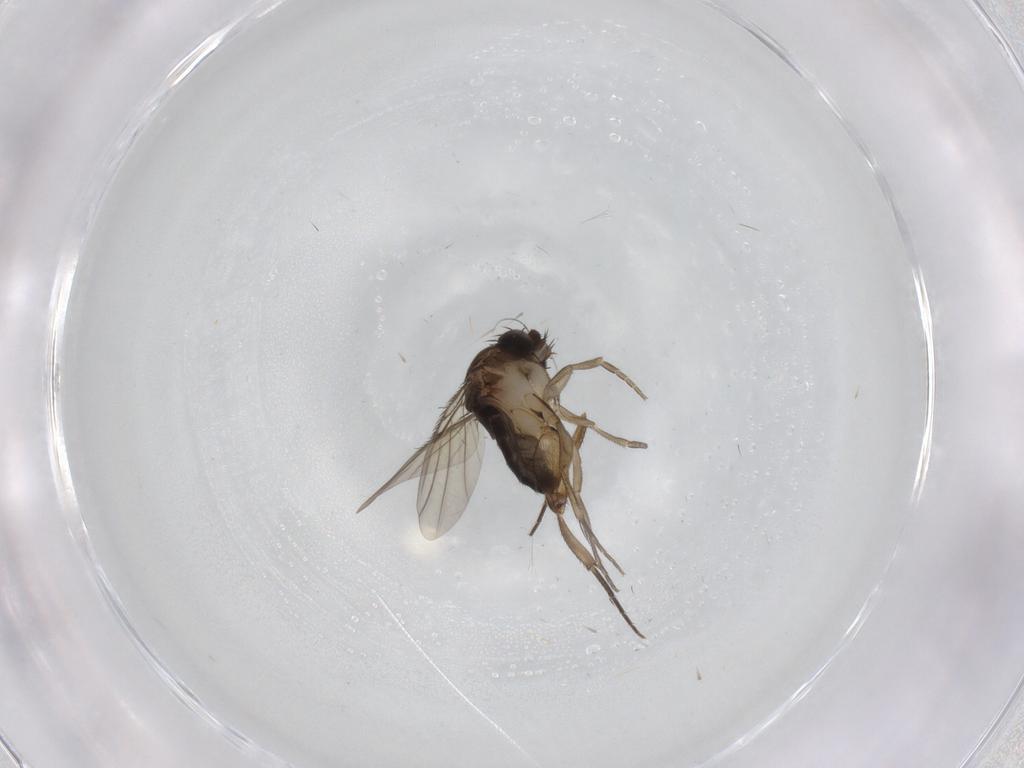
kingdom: Animalia
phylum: Arthropoda
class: Insecta
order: Diptera
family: Phoridae
